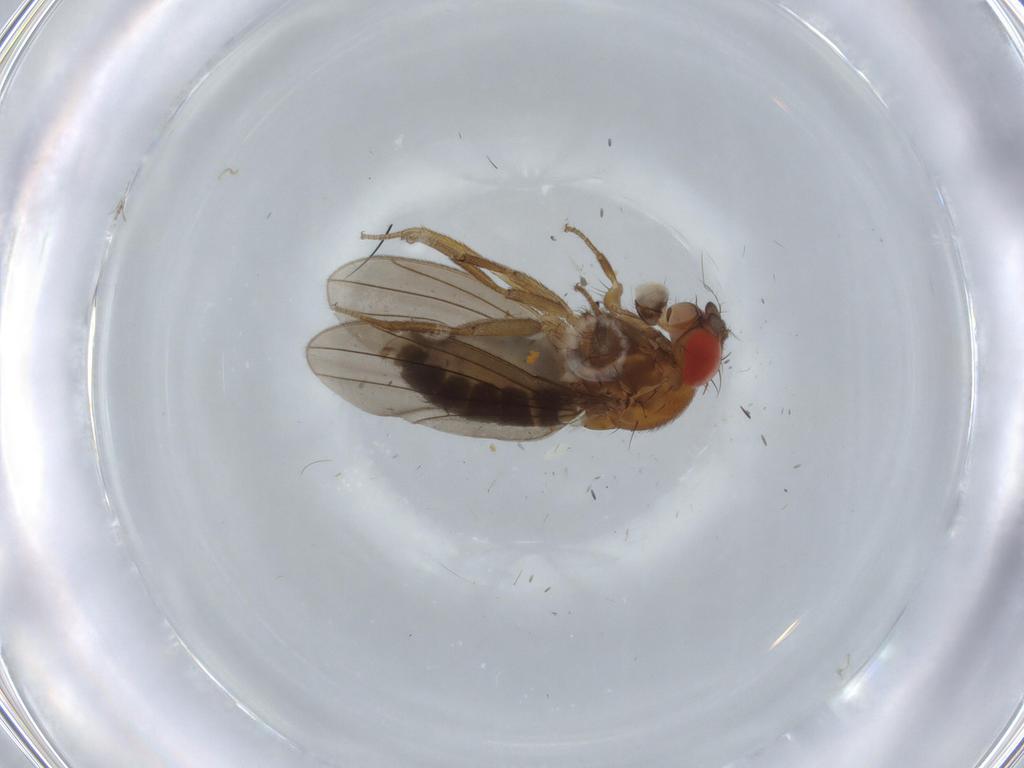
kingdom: Animalia
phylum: Arthropoda
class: Insecta
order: Diptera
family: Drosophilidae
